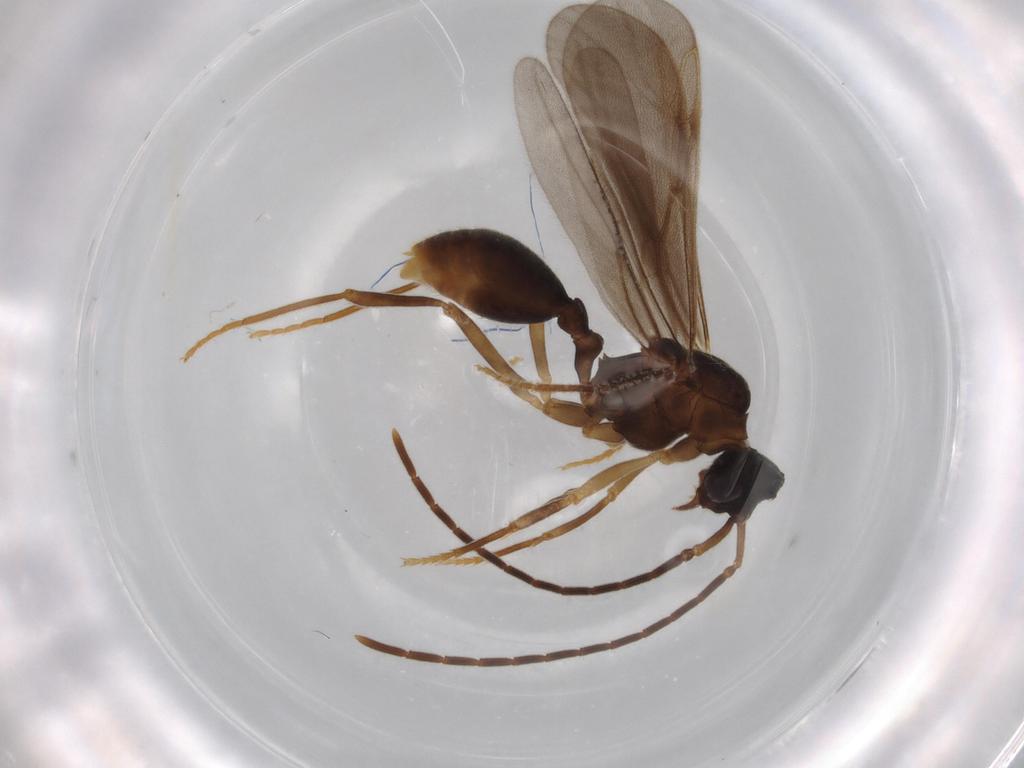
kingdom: Animalia
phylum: Arthropoda
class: Insecta
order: Hymenoptera
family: Formicidae
